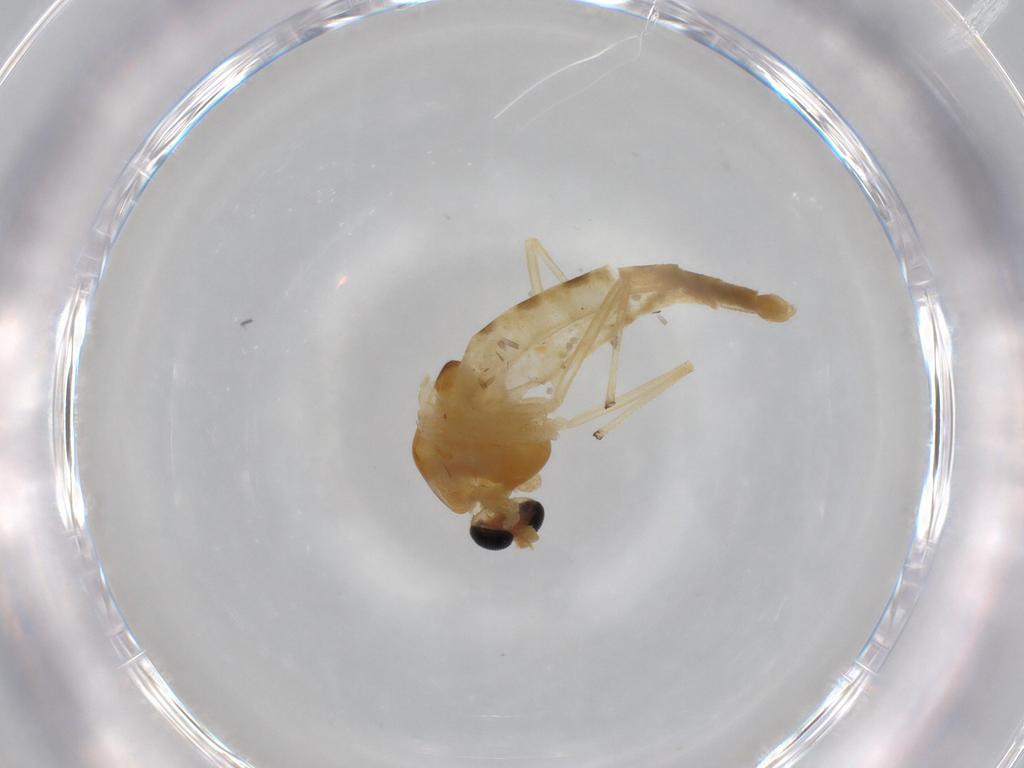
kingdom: Animalia
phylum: Arthropoda
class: Insecta
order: Diptera
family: Chironomidae
